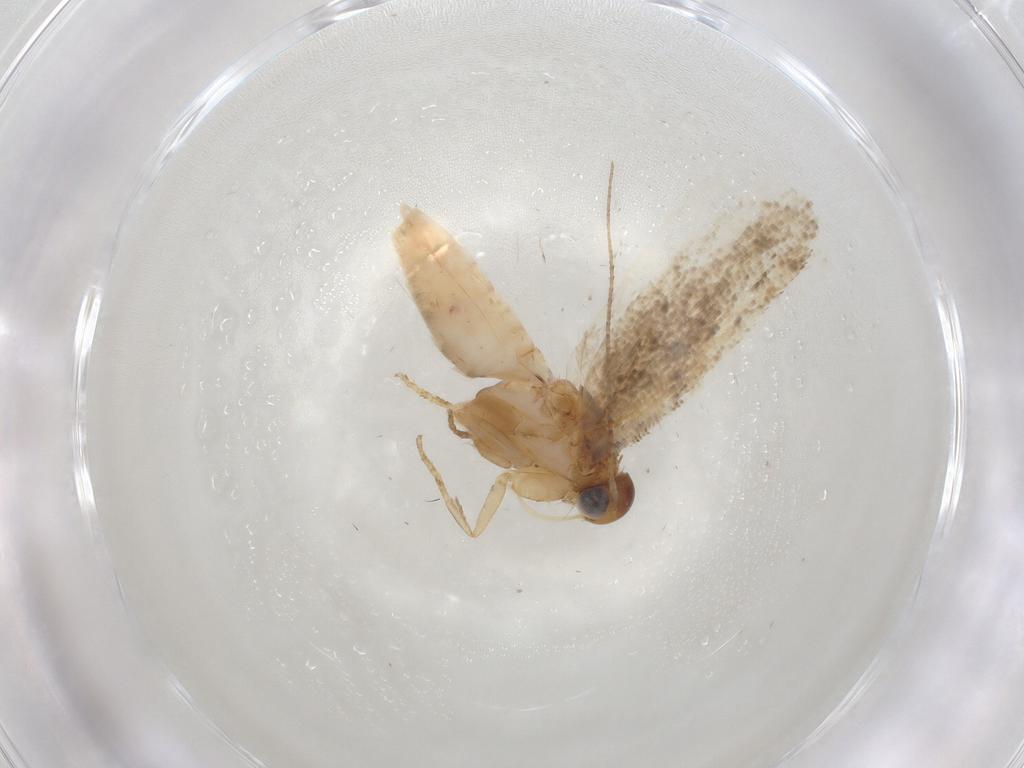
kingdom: Animalia
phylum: Arthropoda
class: Insecta
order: Lepidoptera
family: Gelechiidae
